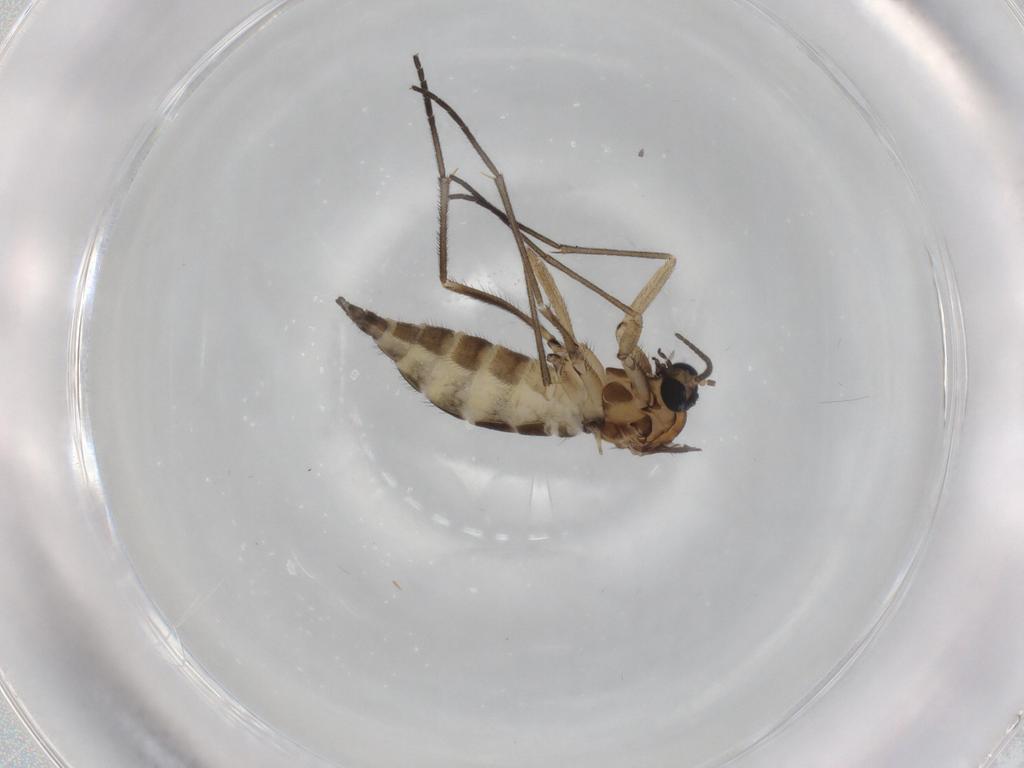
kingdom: Animalia
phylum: Arthropoda
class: Insecta
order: Diptera
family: Sciaridae
